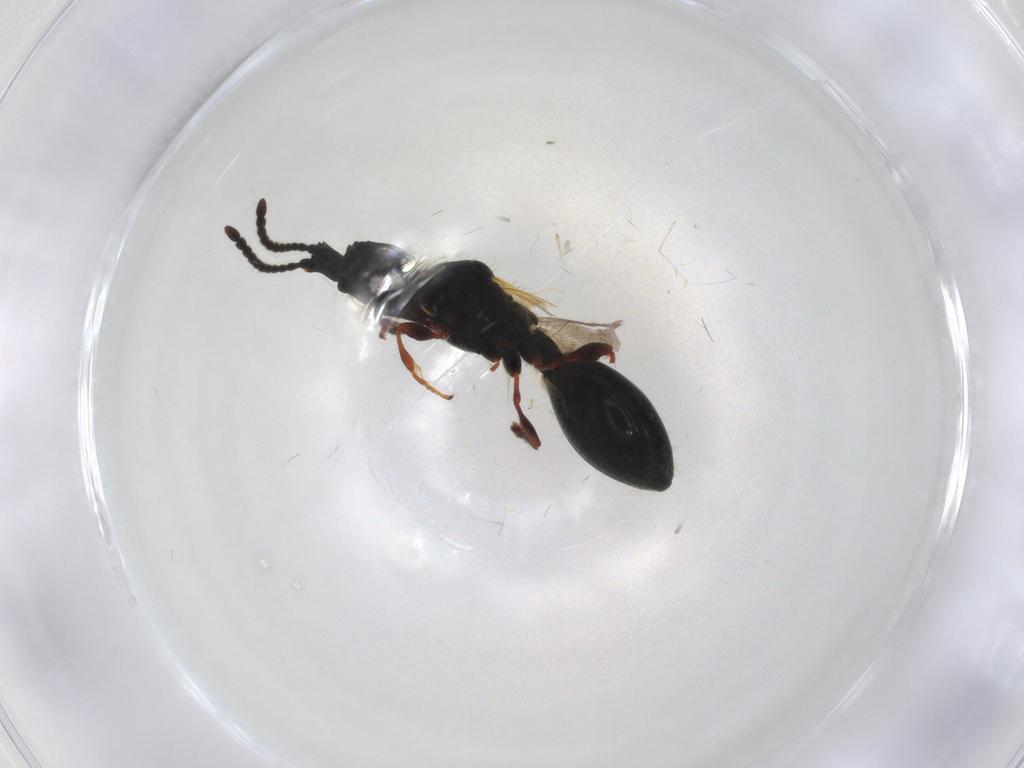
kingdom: Animalia
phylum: Arthropoda
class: Insecta
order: Hymenoptera
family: Diapriidae
